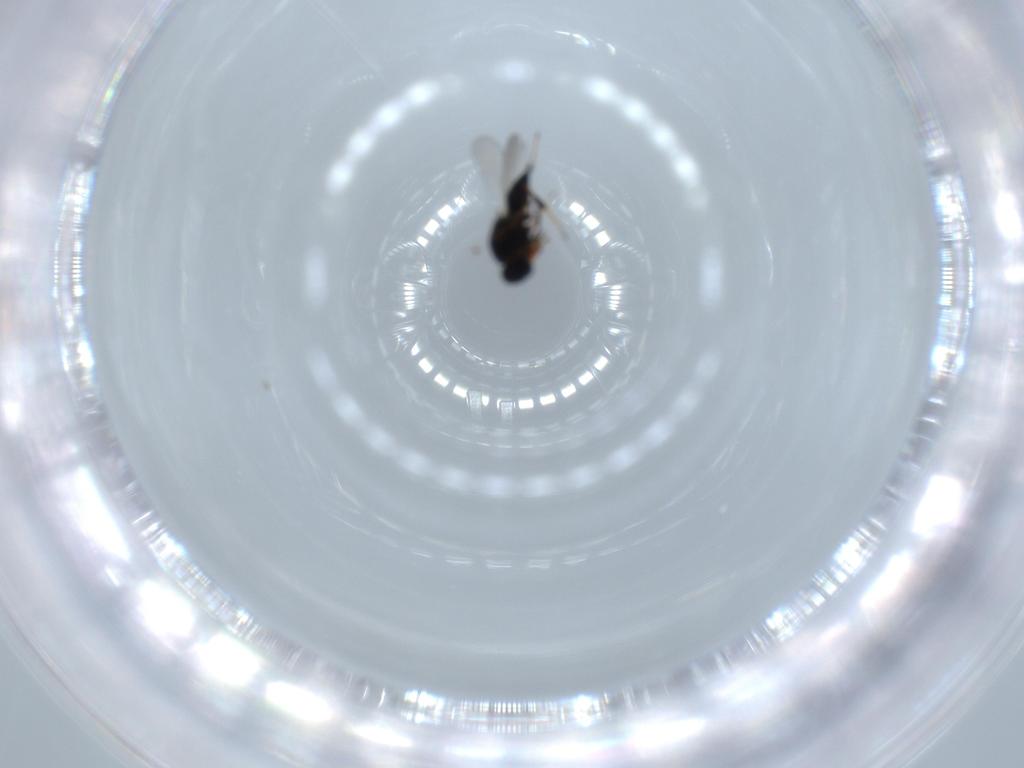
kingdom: Animalia
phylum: Arthropoda
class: Insecta
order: Hymenoptera
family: Platygastridae
